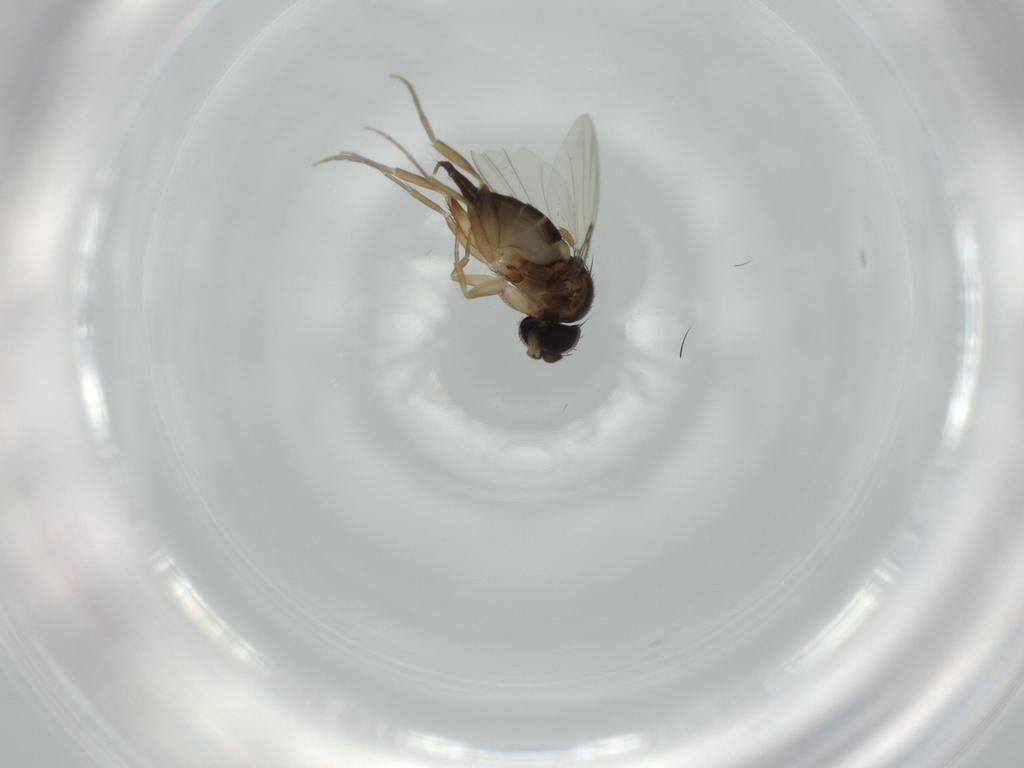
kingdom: Animalia
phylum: Arthropoda
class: Insecta
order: Diptera
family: Phoridae
